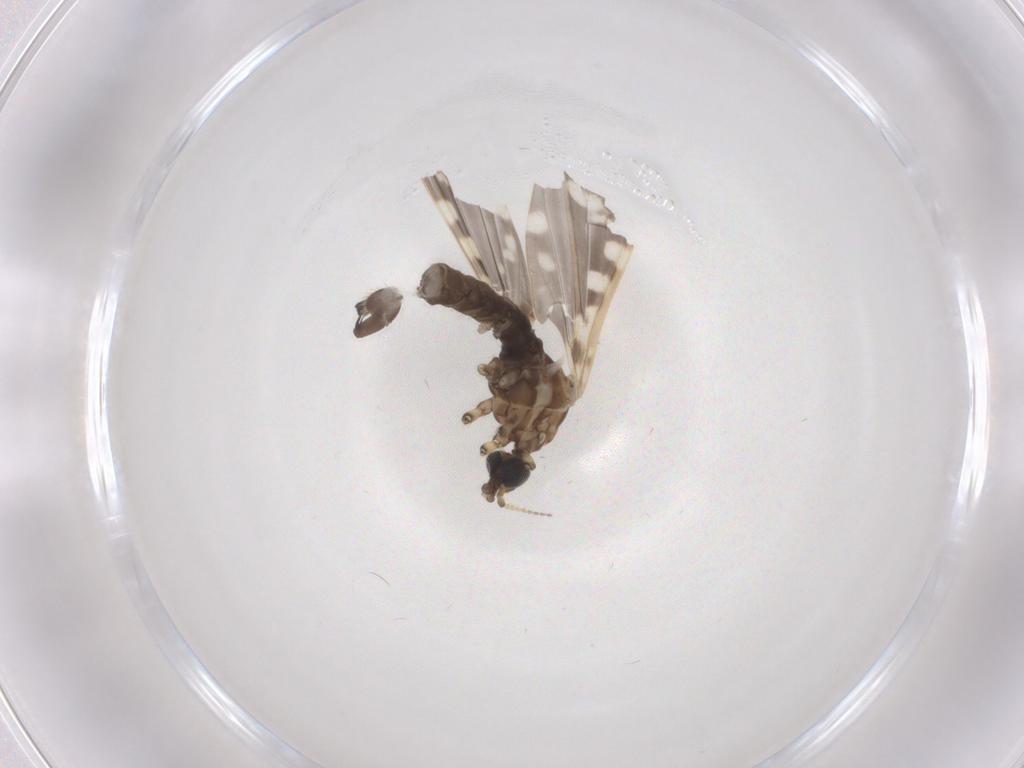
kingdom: Animalia
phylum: Arthropoda
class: Insecta
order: Diptera
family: Limoniidae
